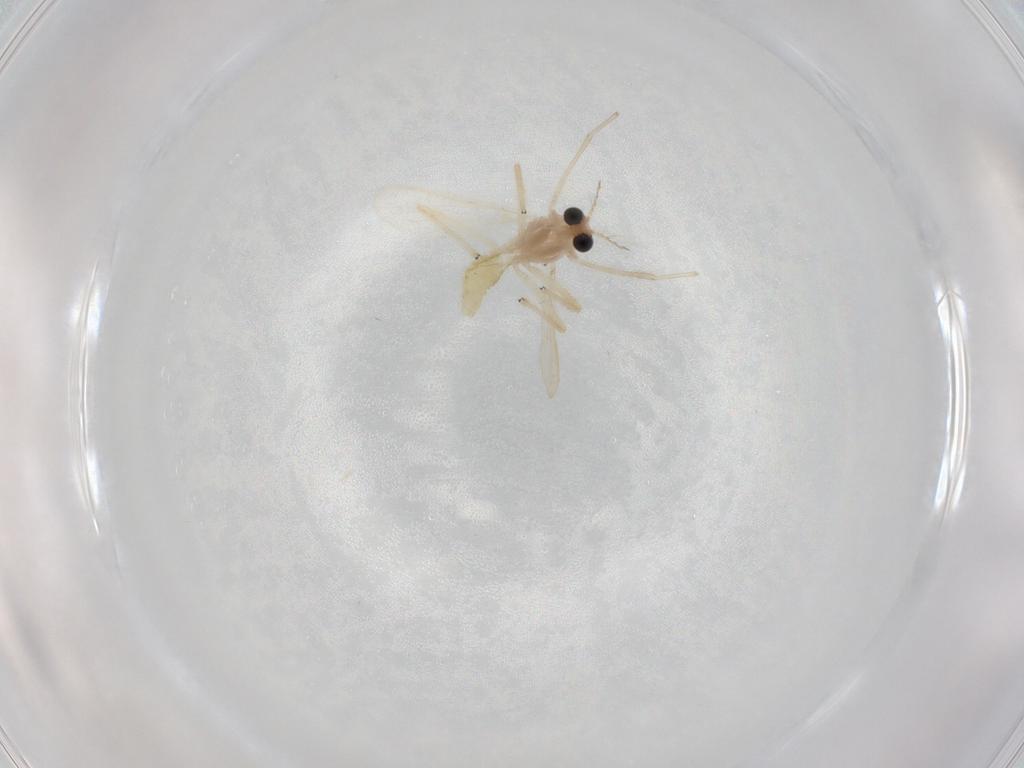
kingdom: Animalia
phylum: Arthropoda
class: Insecta
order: Diptera
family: Chironomidae
